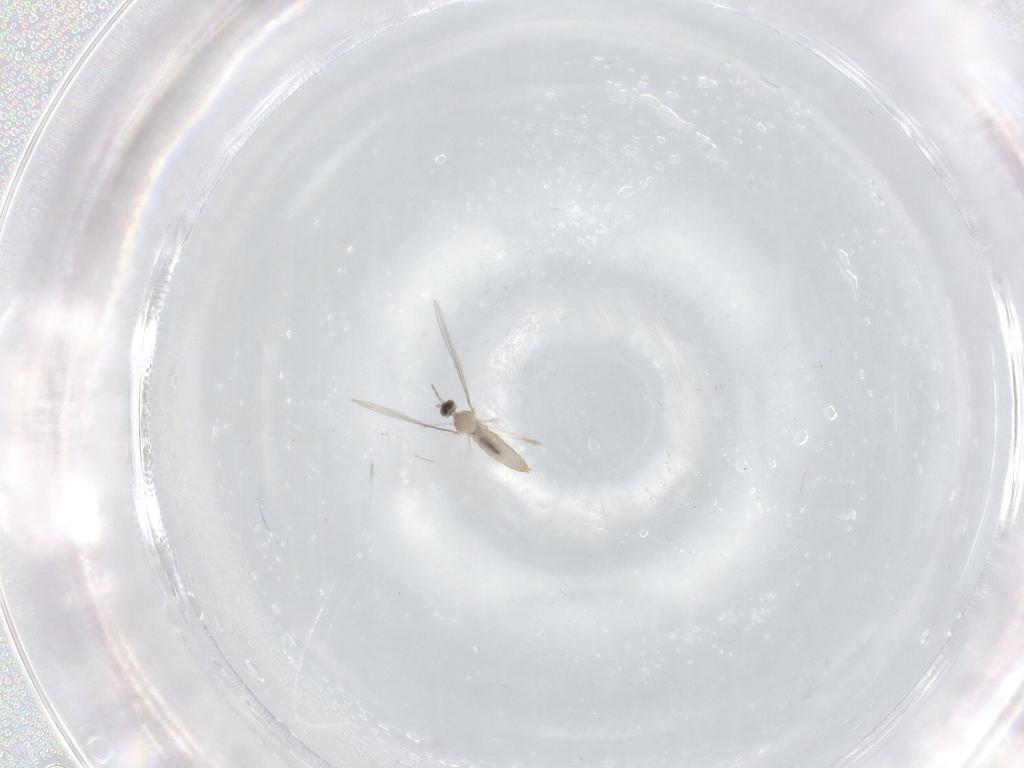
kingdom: Animalia
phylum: Arthropoda
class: Insecta
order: Diptera
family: Cecidomyiidae
